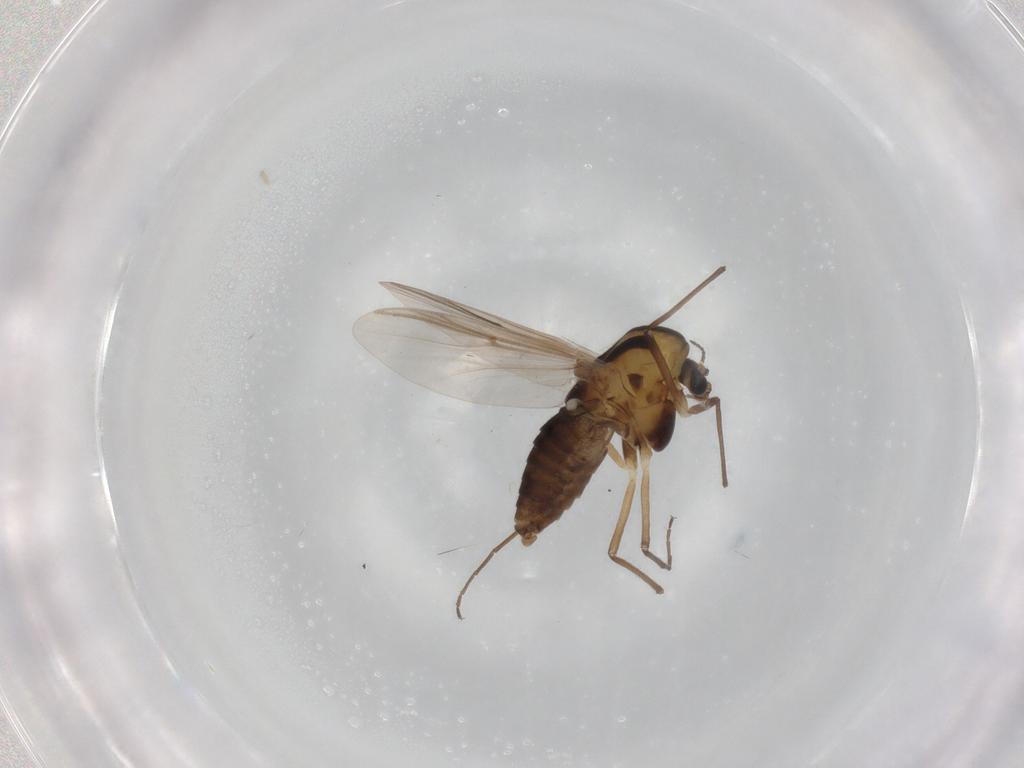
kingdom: Animalia
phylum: Arthropoda
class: Insecta
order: Diptera
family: Chironomidae
